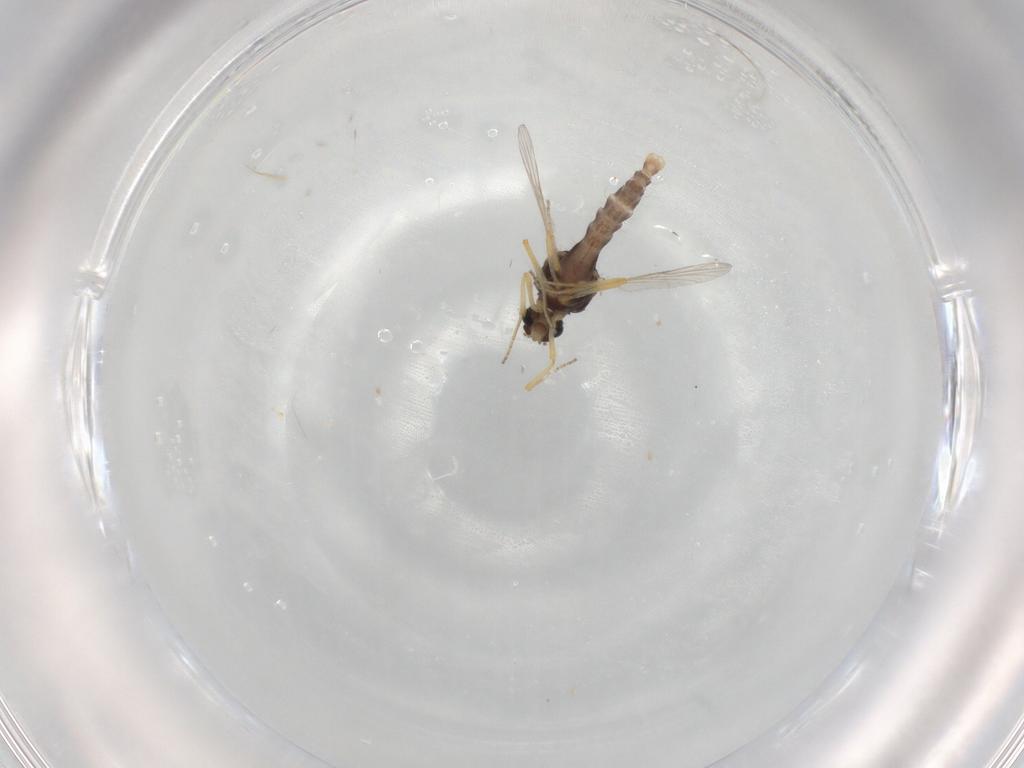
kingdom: Animalia
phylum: Arthropoda
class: Insecta
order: Diptera
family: Ceratopogonidae
